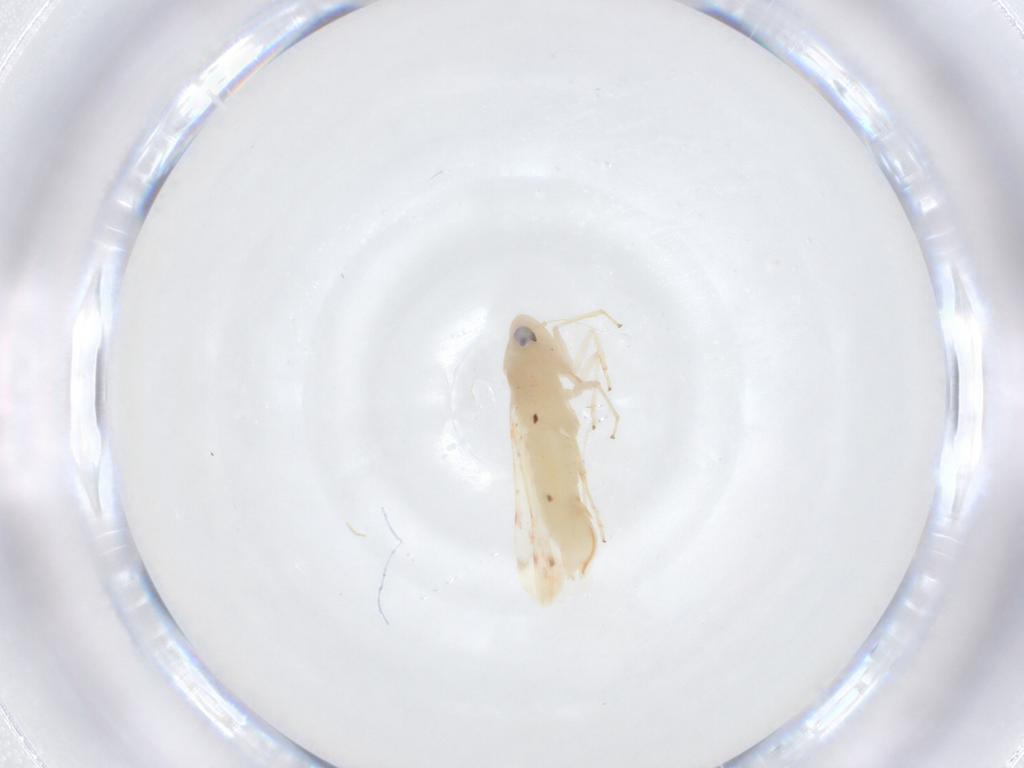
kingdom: Animalia
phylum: Arthropoda
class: Insecta
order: Hemiptera
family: Cicadellidae
